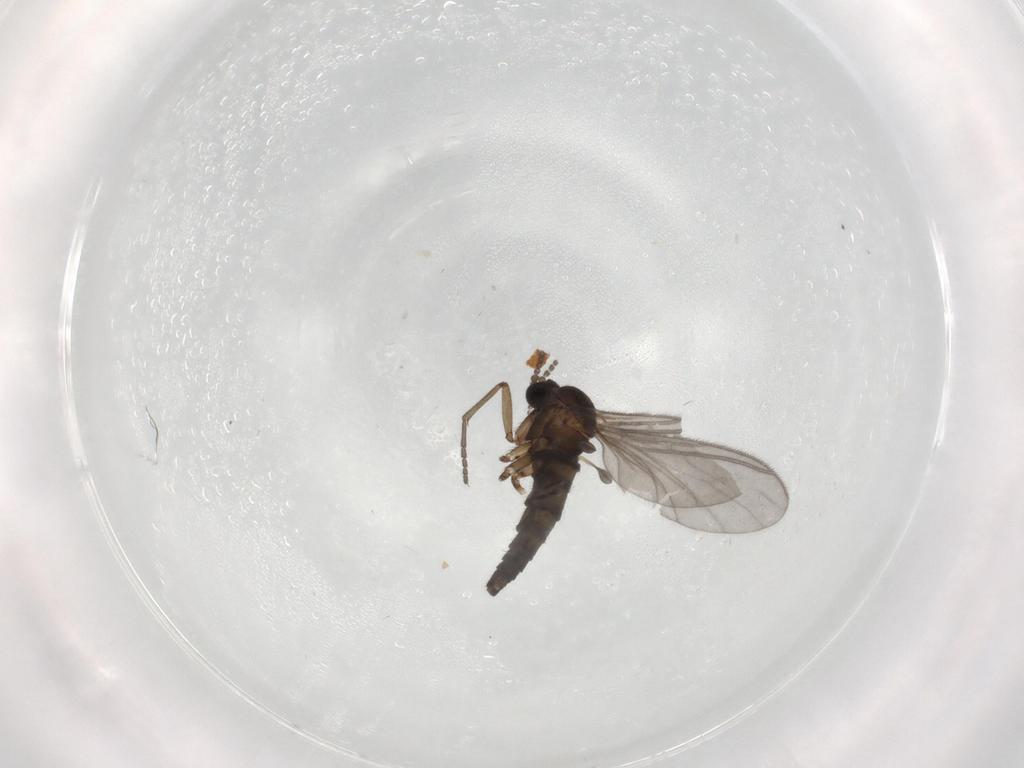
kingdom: Animalia
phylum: Arthropoda
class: Insecta
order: Diptera
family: Sciaridae
